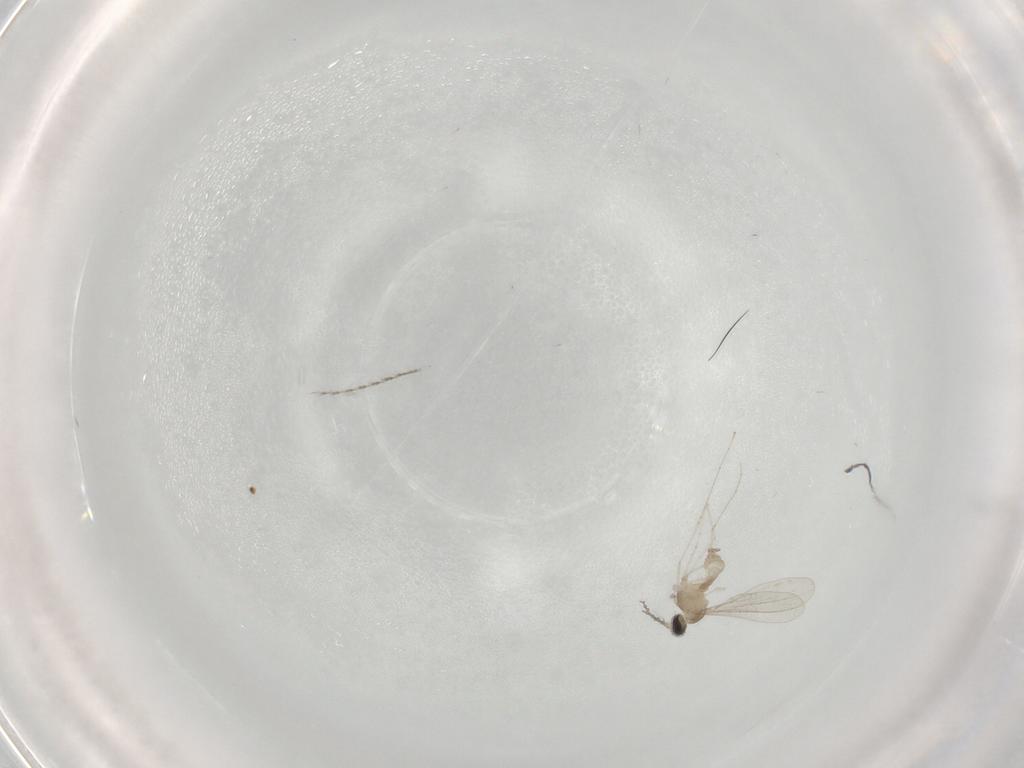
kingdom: Animalia
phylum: Arthropoda
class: Insecta
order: Diptera
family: Cecidomyiidae
